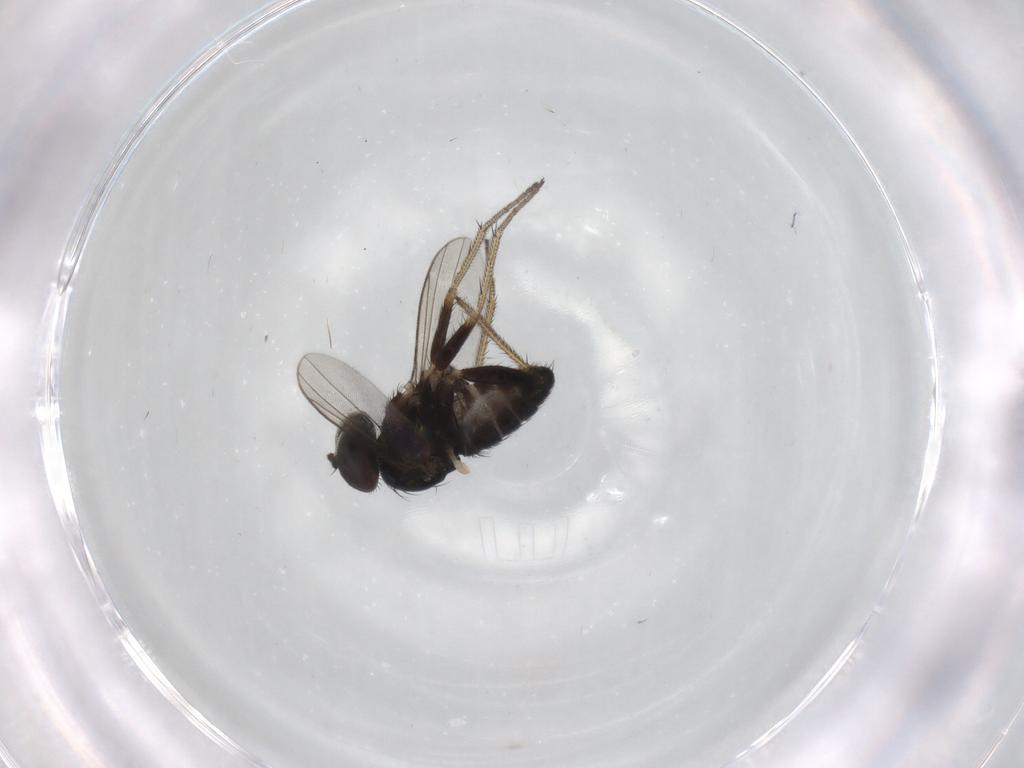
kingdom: Animalia
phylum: Arthropoda
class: Insecta
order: Diptera
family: Dolichopodidae
